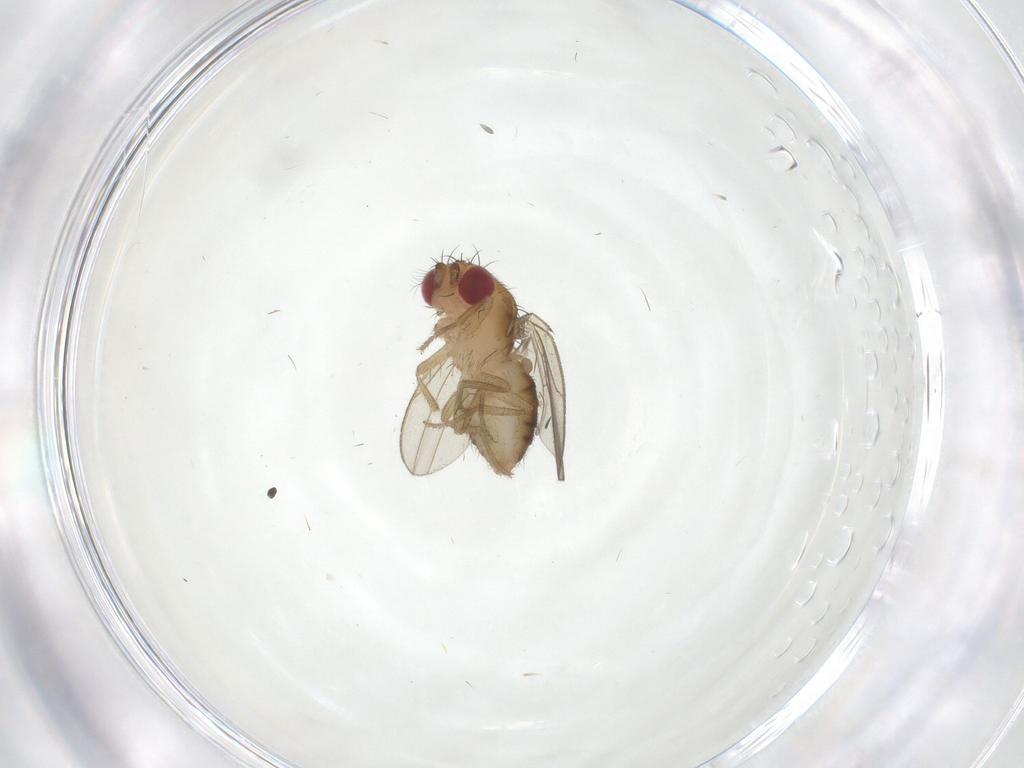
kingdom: Animalia
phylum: Arthropoda
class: Insecta
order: Diptera
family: Drosophilidae
